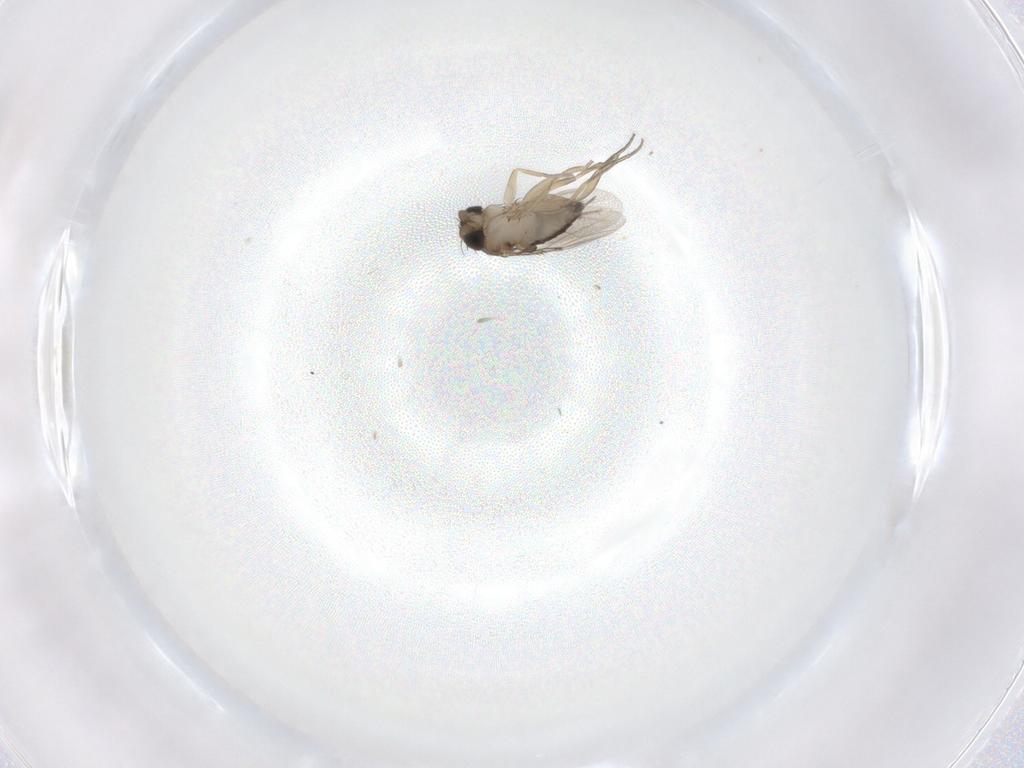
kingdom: Animalia
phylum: Arthropoda
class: Insecta
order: Diptera
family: Phoridae
